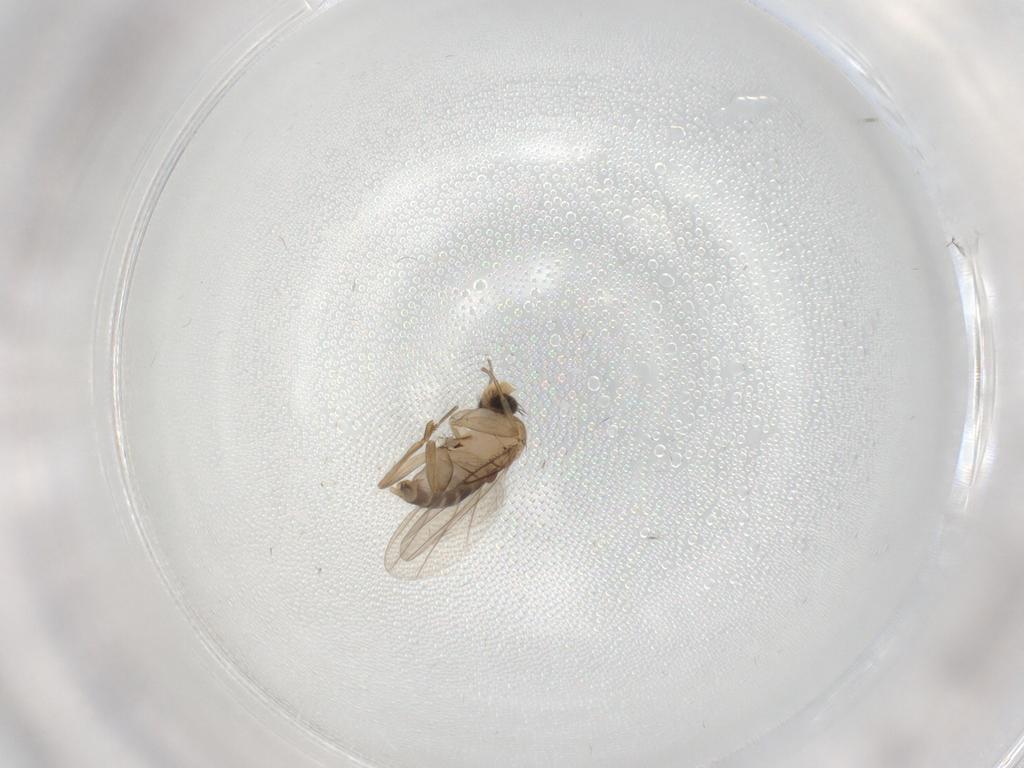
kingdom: Animalia
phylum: Arthropoda
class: Insecta
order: Diptera
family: Phoridae
